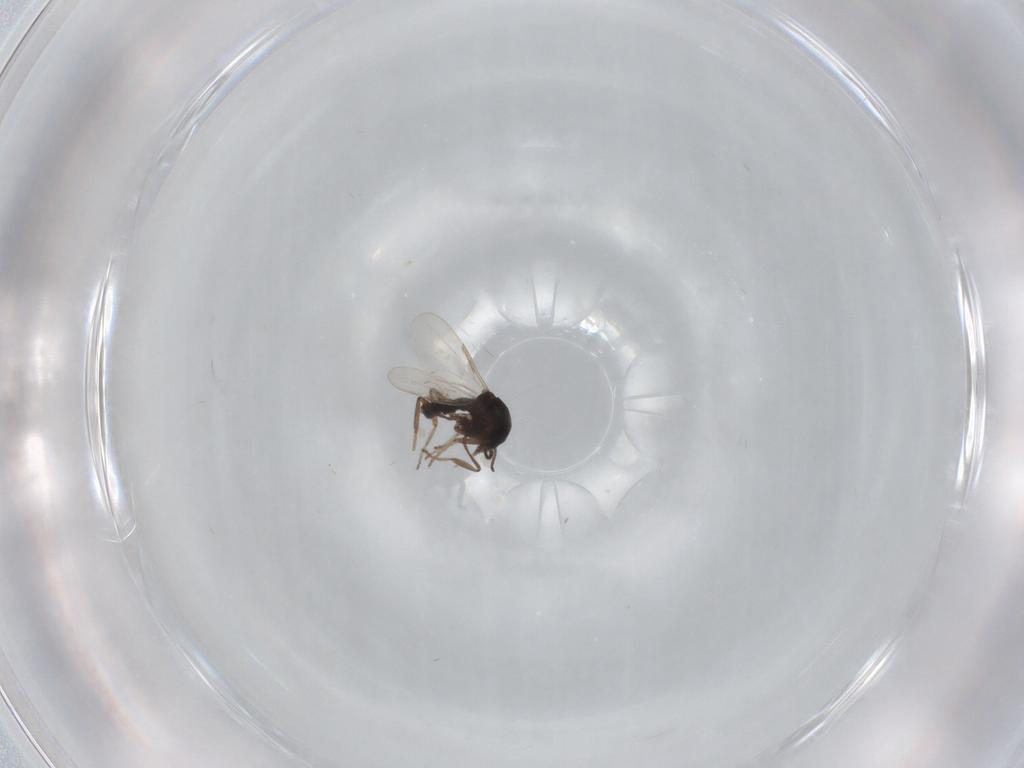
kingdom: Animalia
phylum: Arthropoda
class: Insecta
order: Diptera
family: Ceratopogonidae
